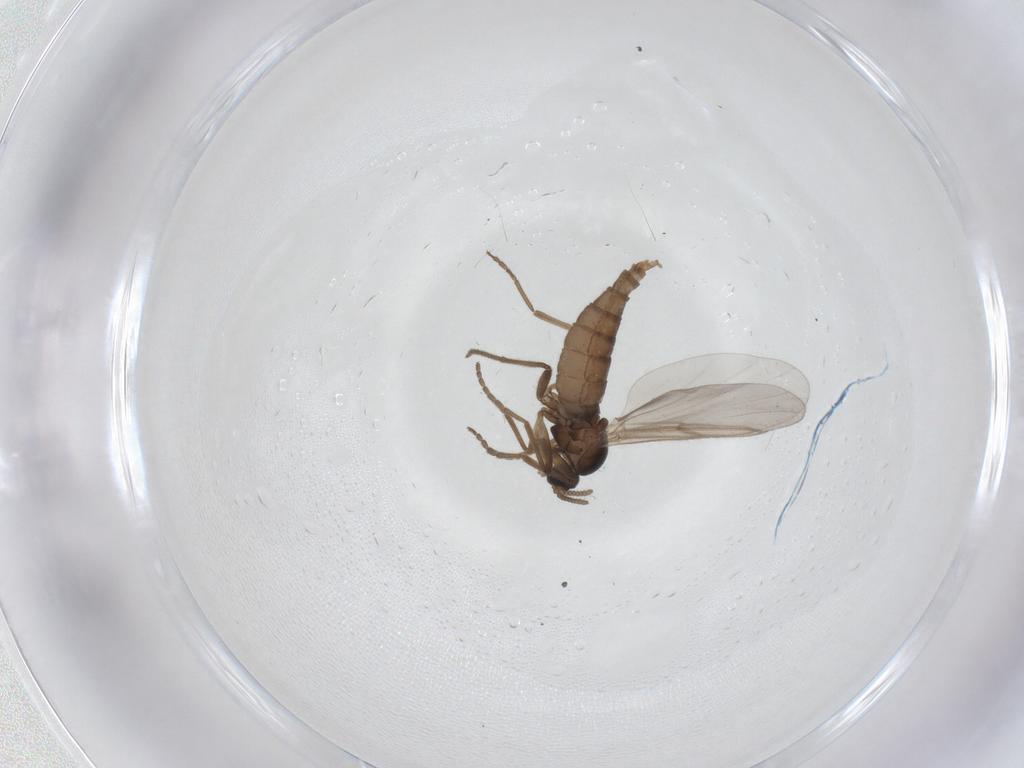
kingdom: Animalia
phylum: Arthropoda
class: Insecta
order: Diptera
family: Cecidomyiidae
